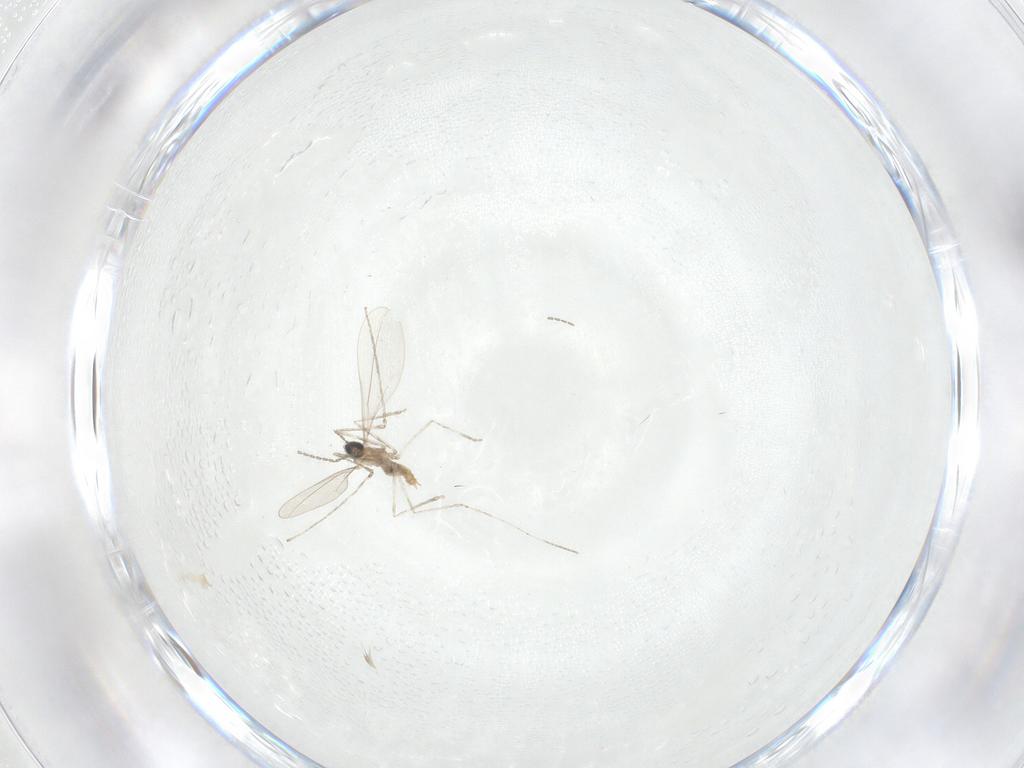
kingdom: Animalia
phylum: Arthropoda
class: Insecta
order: Diptera
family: Cecidomyiidae
